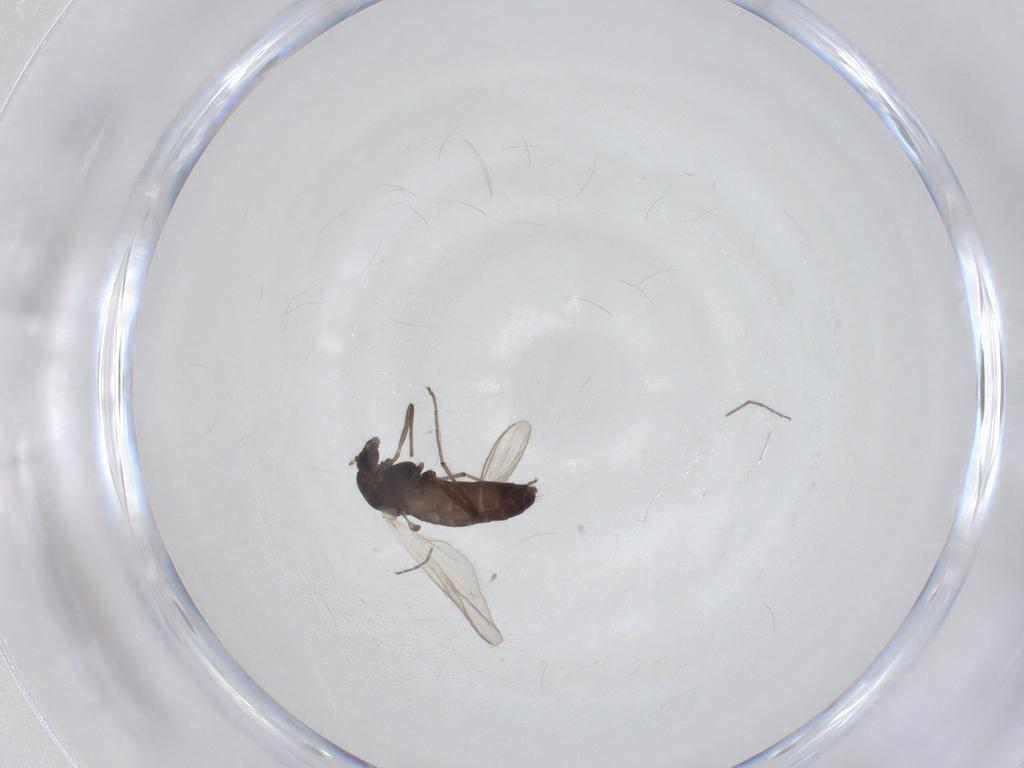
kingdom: Animalia
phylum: Arthropoda
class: Insecta
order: Diptera
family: Chironomidae
